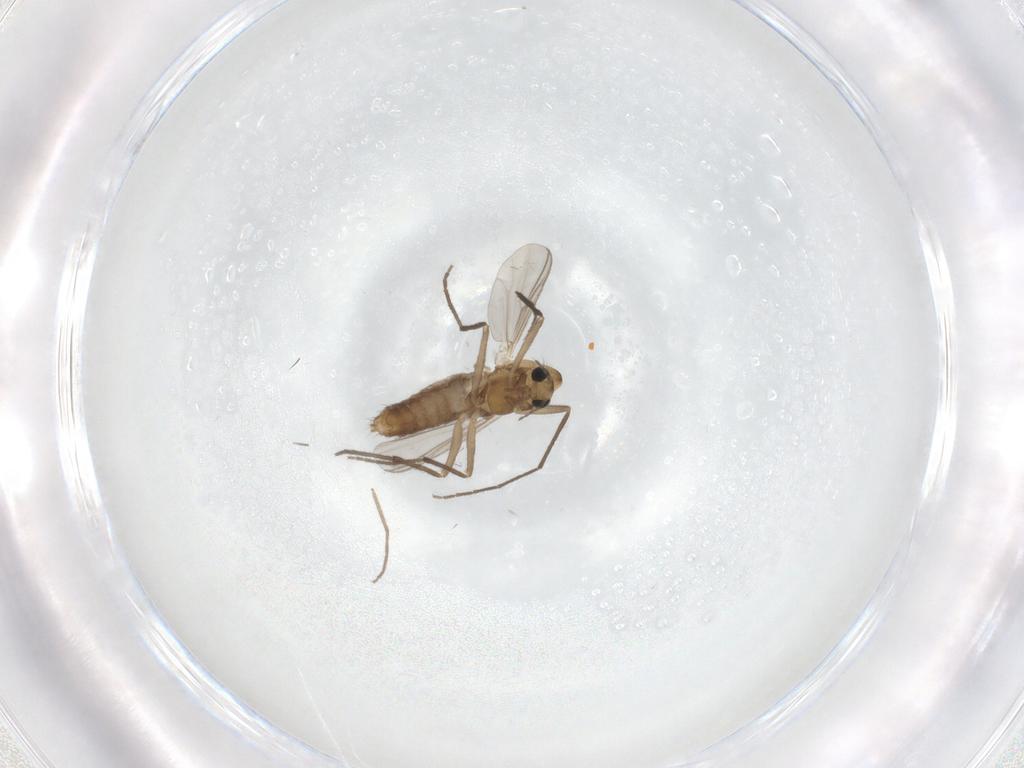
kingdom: Animalia
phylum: Arthropoda
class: Insecta
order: Diptera
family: Chironomidae
